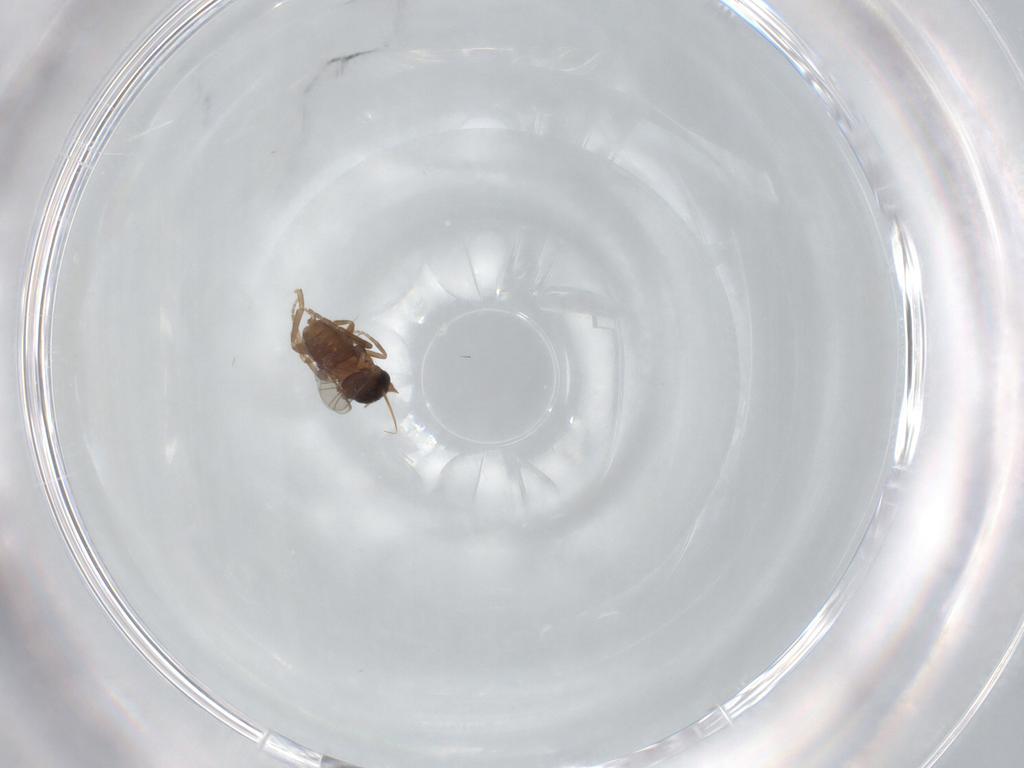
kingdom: Animalia
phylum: Arthropoda
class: Insecta
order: Diptera
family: Phoridae
